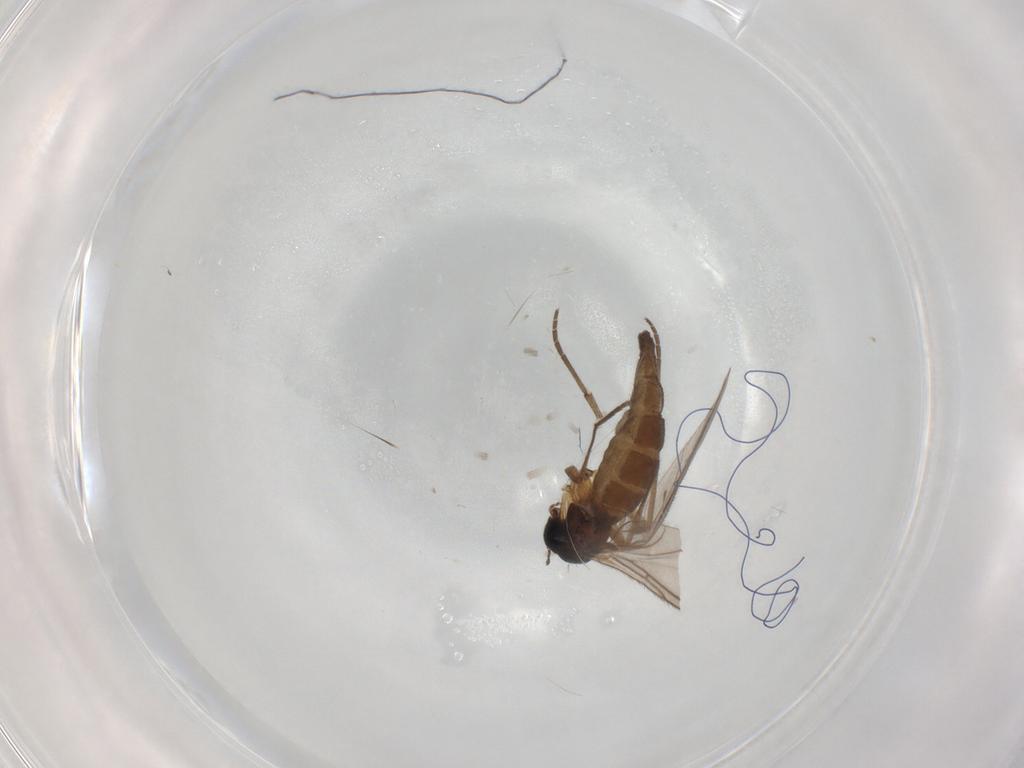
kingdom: Animalia
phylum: Arthropoda
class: Insecta
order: Diptera
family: Sciaridae
